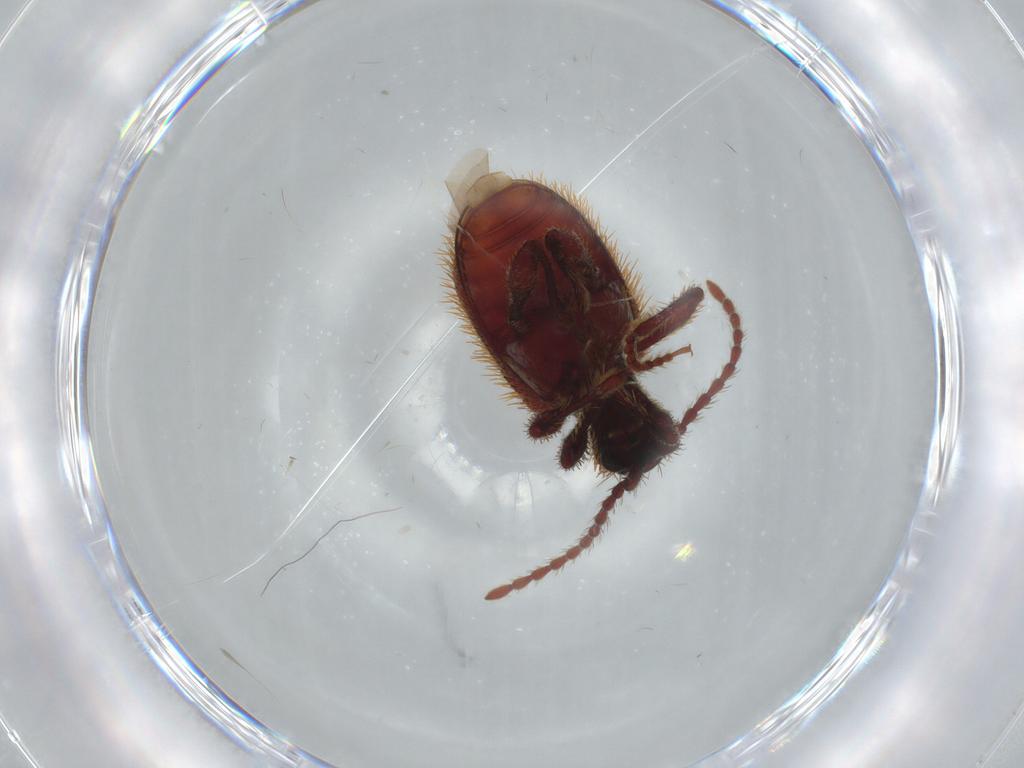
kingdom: Animalia
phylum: Arthropoda
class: Insecta
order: Coleoptera
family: Ptinidae
